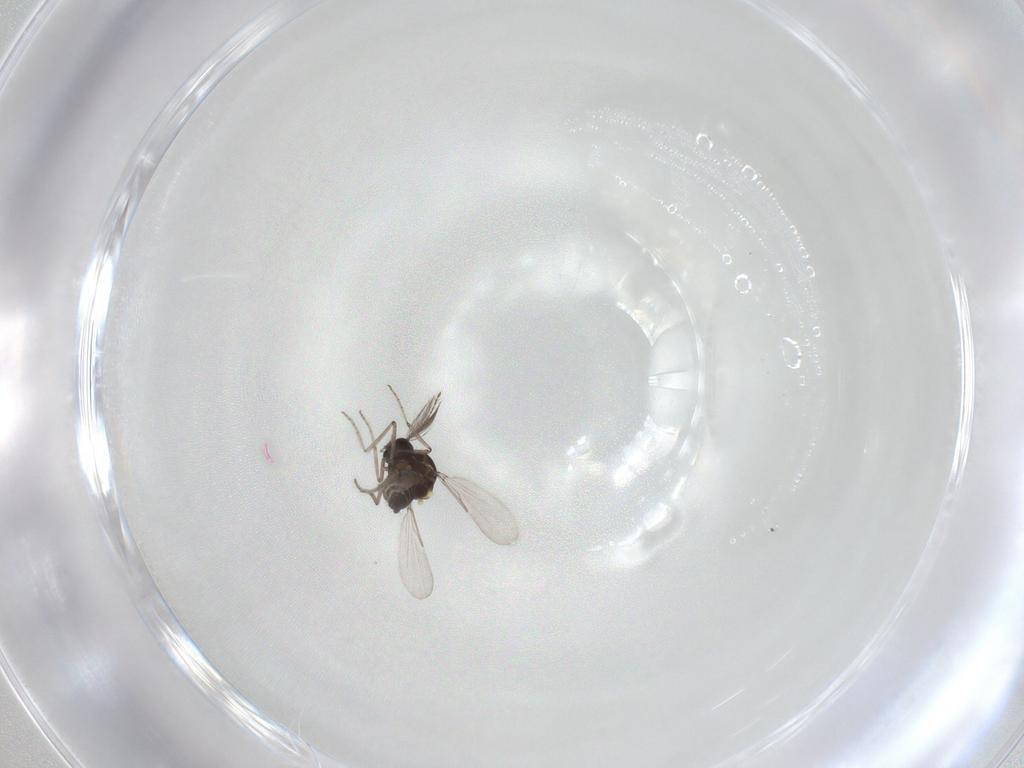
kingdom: Animalia
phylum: Arthropoda
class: Insecta
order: Diptera
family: Ceratopogonidae
